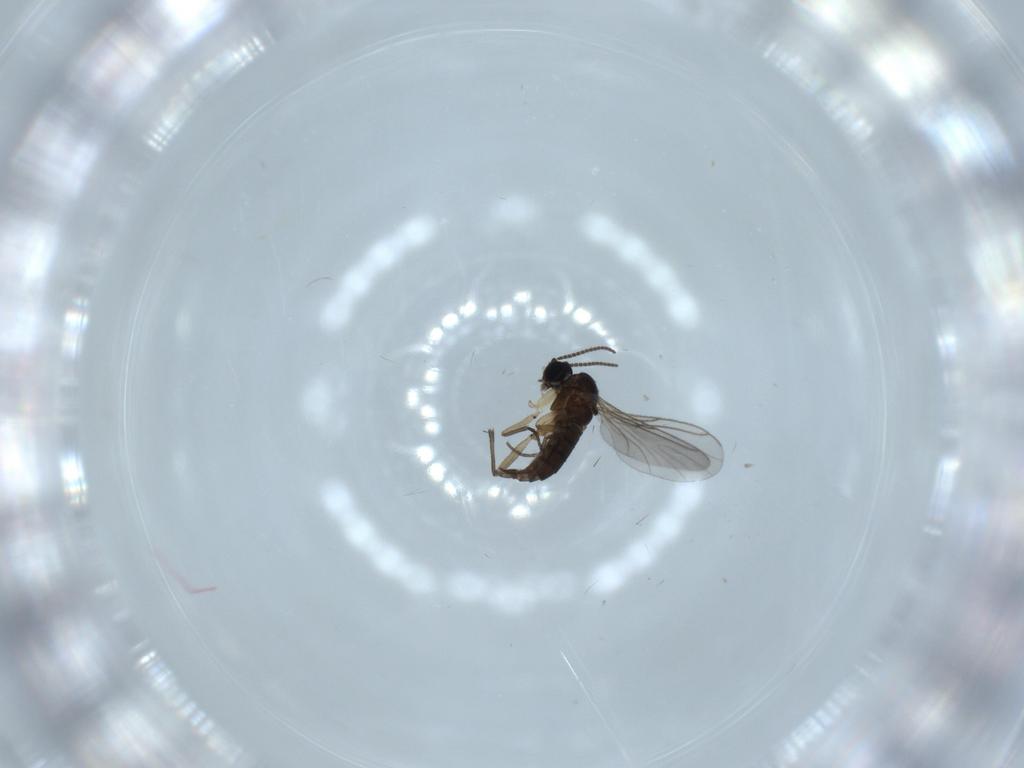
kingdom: Animalia
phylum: Arthropoda
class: Insecta
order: Diptera
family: Sciaridae
